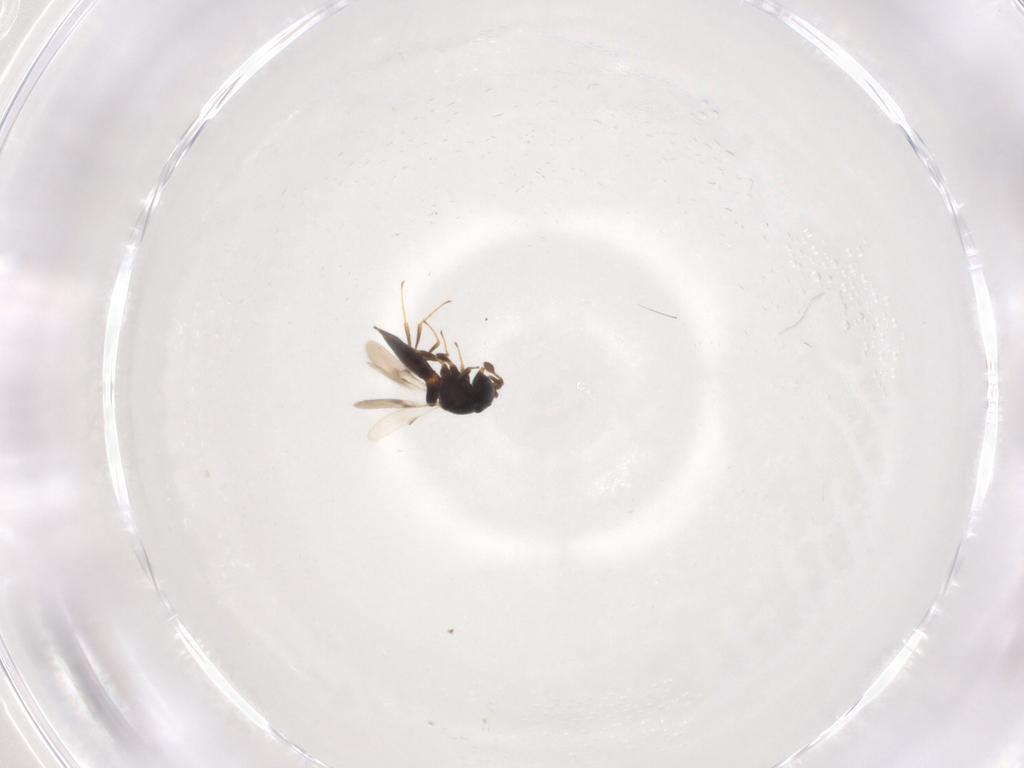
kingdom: Animalia
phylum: Arthropoda
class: Insecta
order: Hymenoptera
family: Scelionidae
